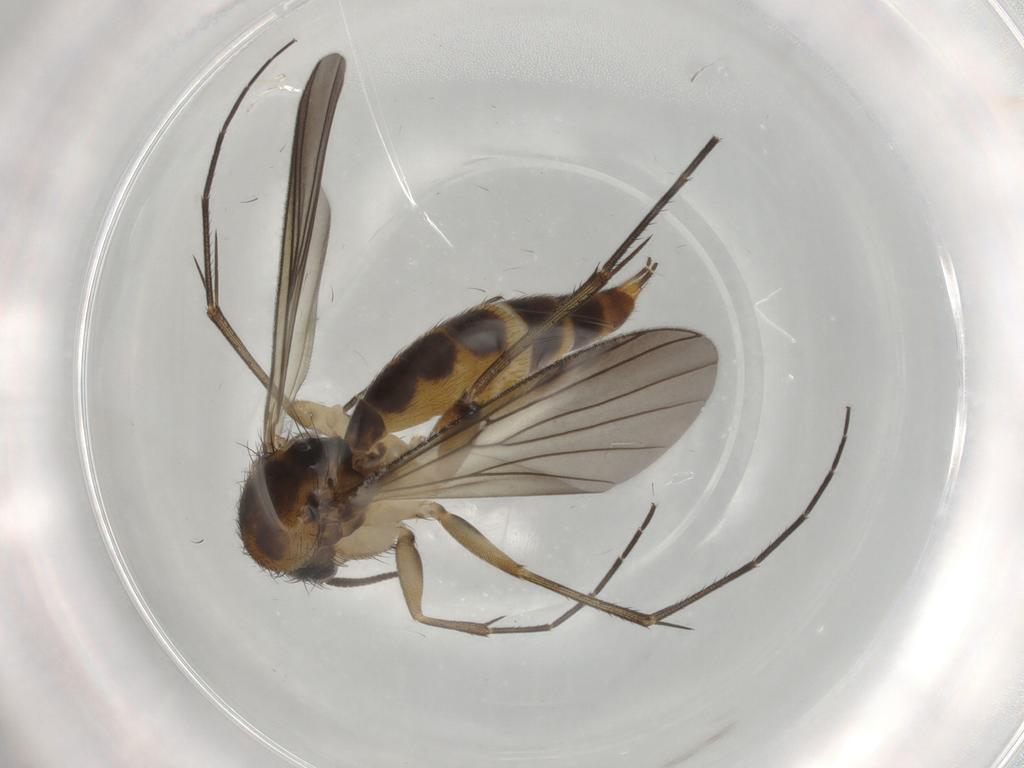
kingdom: Animalia
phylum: Arthropoda
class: Insecta
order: Diptera
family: Mycetophilidae
